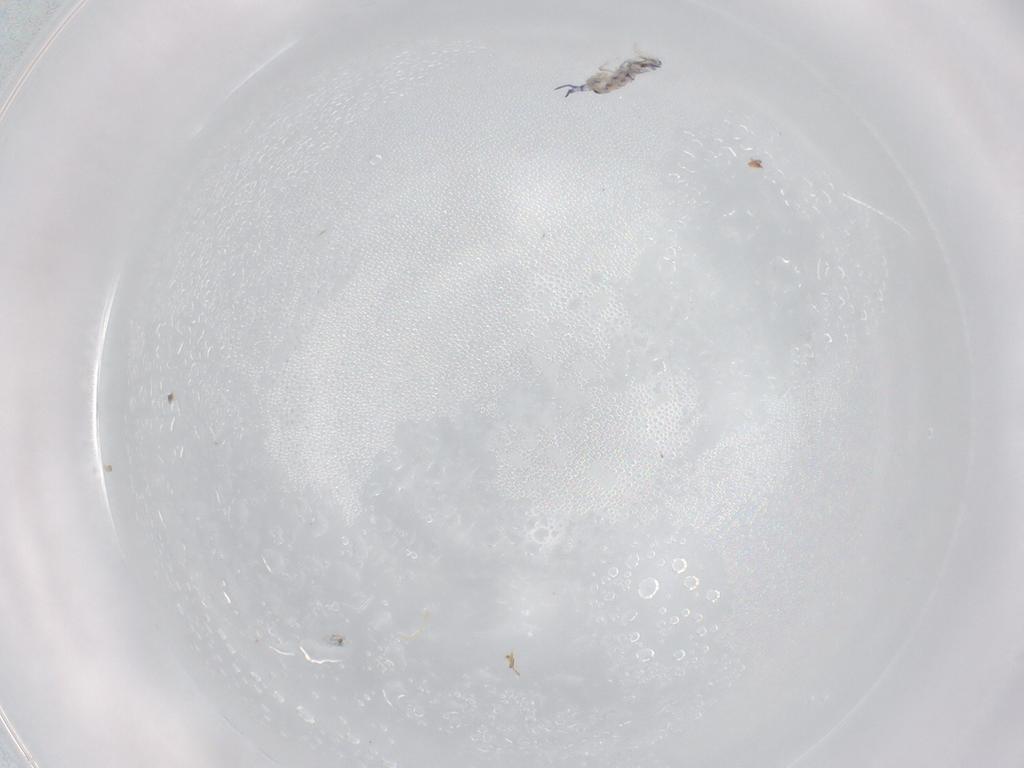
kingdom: Animalia
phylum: Arthropoda
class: Collembola
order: Entomobryomorpha
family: Entomobryidae
